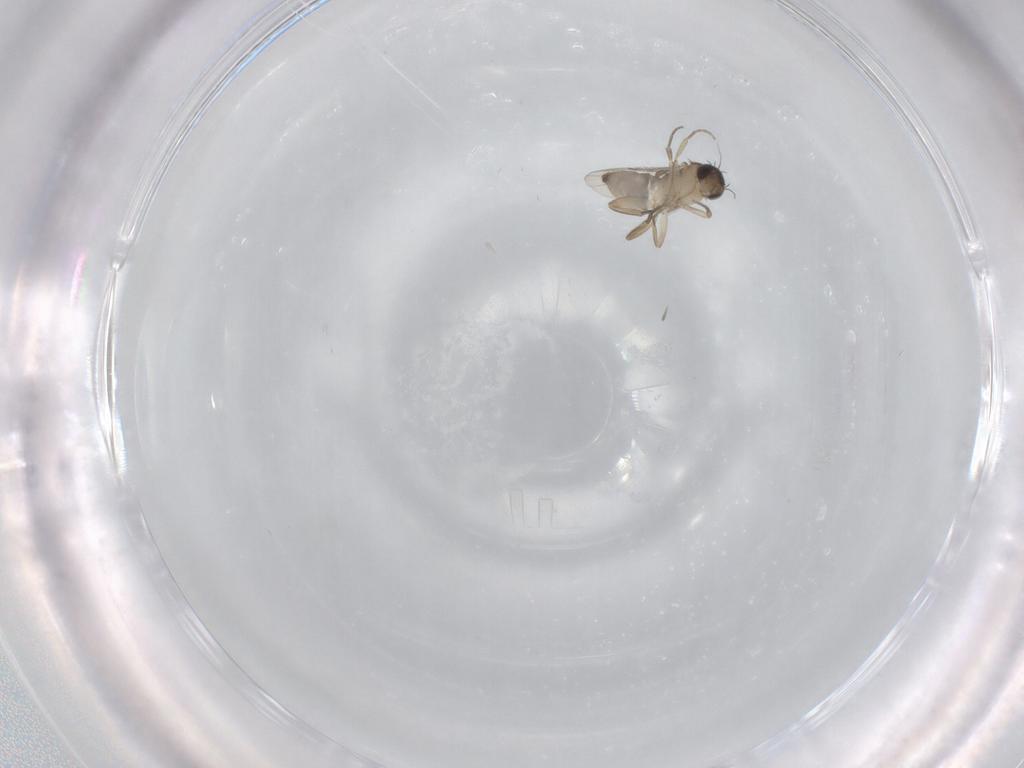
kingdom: Animalia
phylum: Arthropoda
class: Insecta
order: Diptera
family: Phoridae
